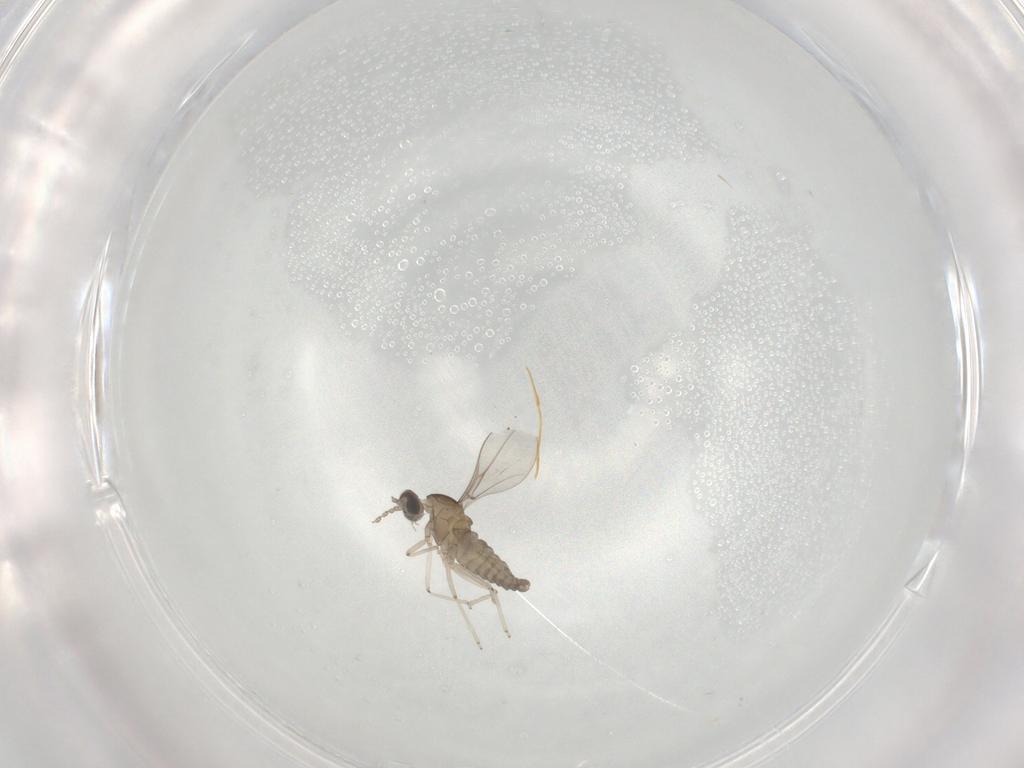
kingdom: Animalia
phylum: Arthropoda
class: Insecta
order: Diptera
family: Cecidomyiidae
